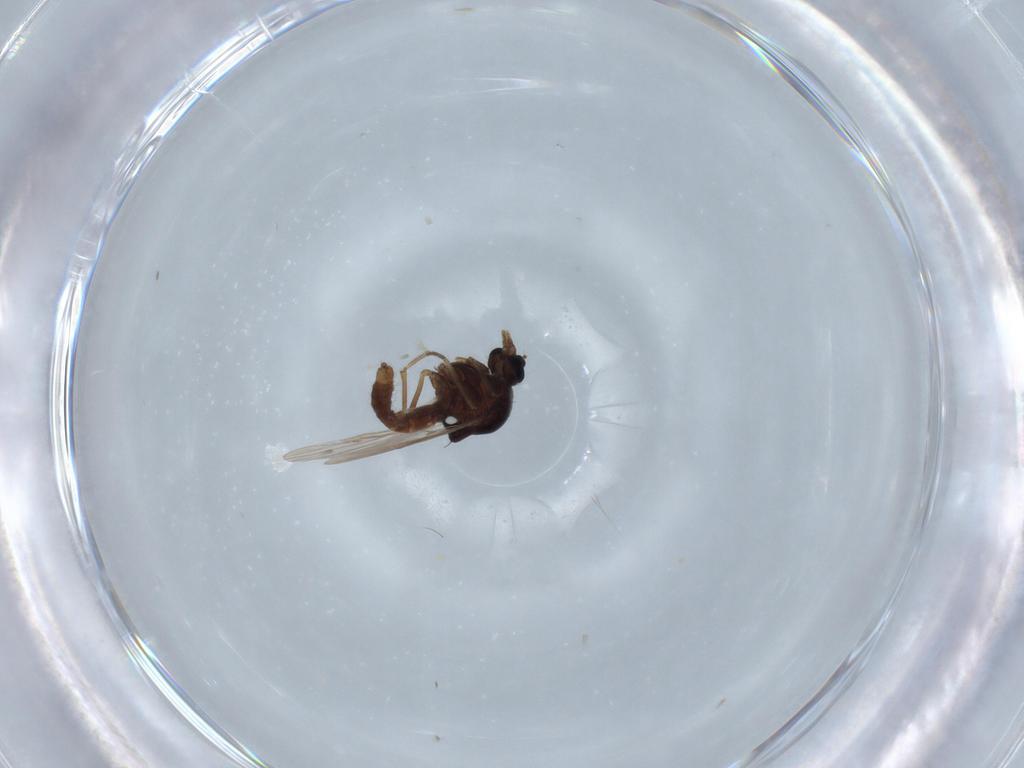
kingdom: Animalia
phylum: Arthropoda
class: Insecta
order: Diptera
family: Ceratopogonidae
